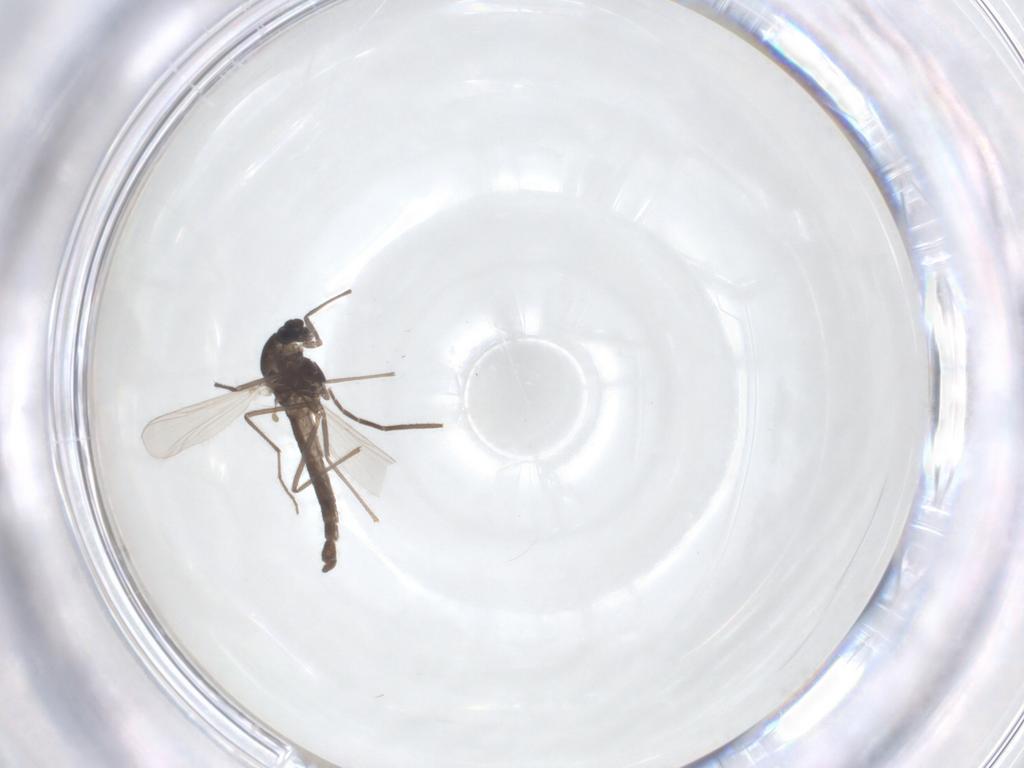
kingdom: Animalia
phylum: Arthropoda
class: Insecta
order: Diptera
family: Chironomidae
